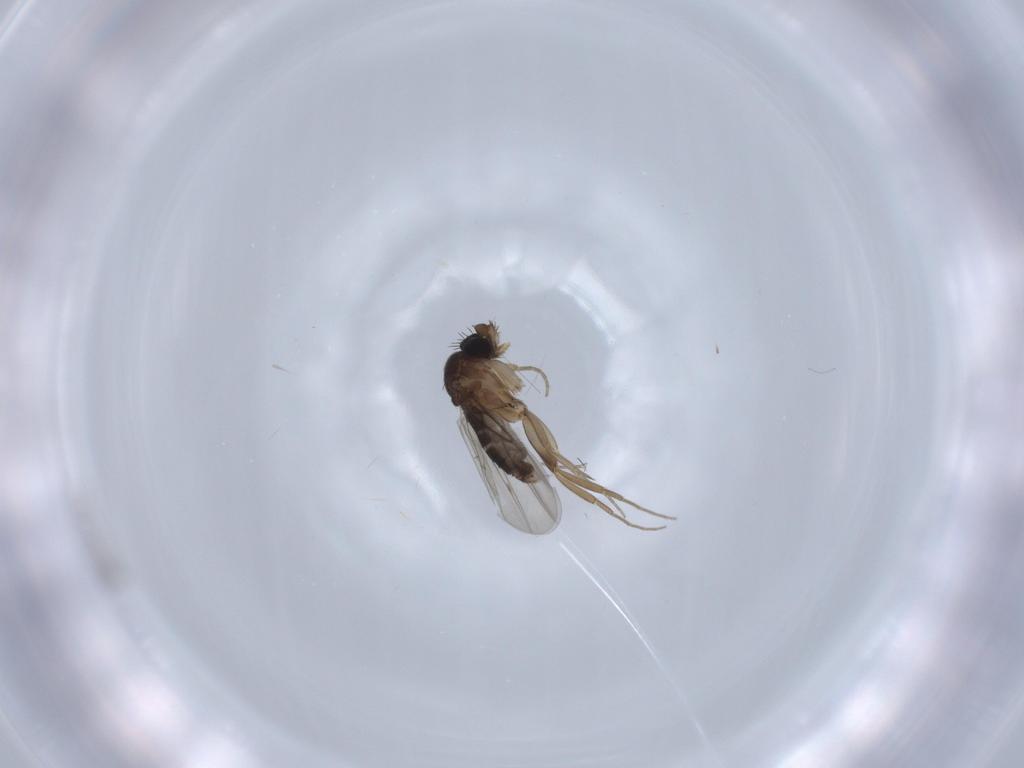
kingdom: Animalia
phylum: Arthropoda
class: Insecta
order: Diptera
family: Phoridae
